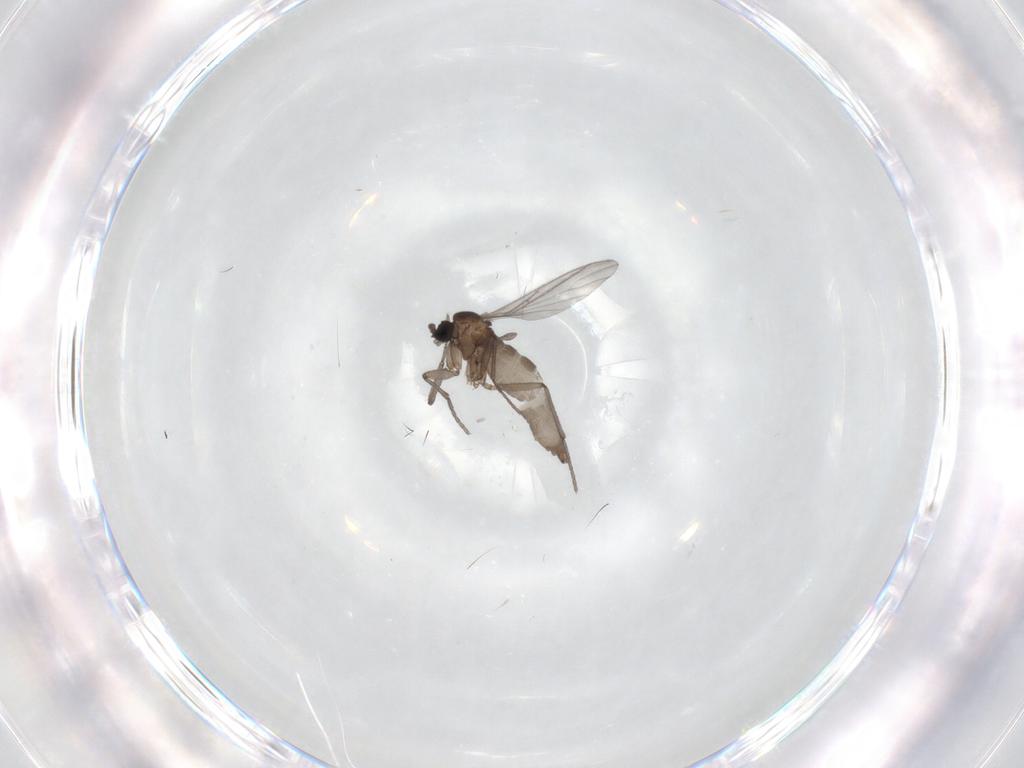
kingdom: Animalia
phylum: Arthropoda
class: Insecta
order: Diptera
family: Sciaridae
